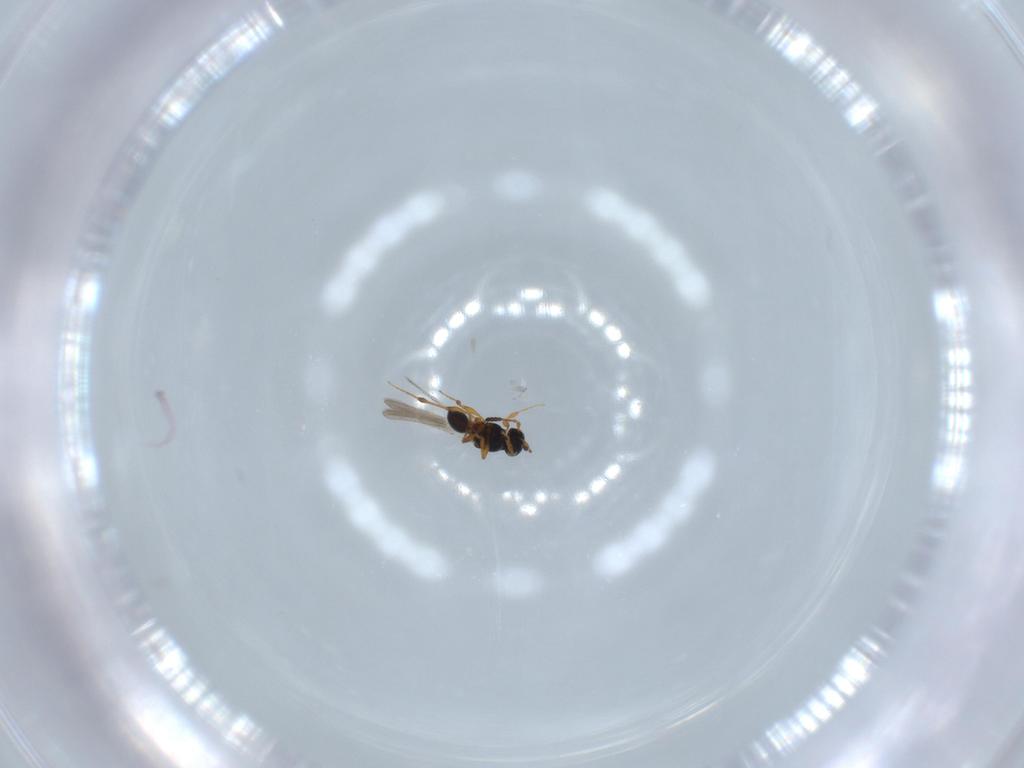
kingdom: Animalia
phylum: Arthropoda
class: Insecta
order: Hymenoptera
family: Platygastridae
